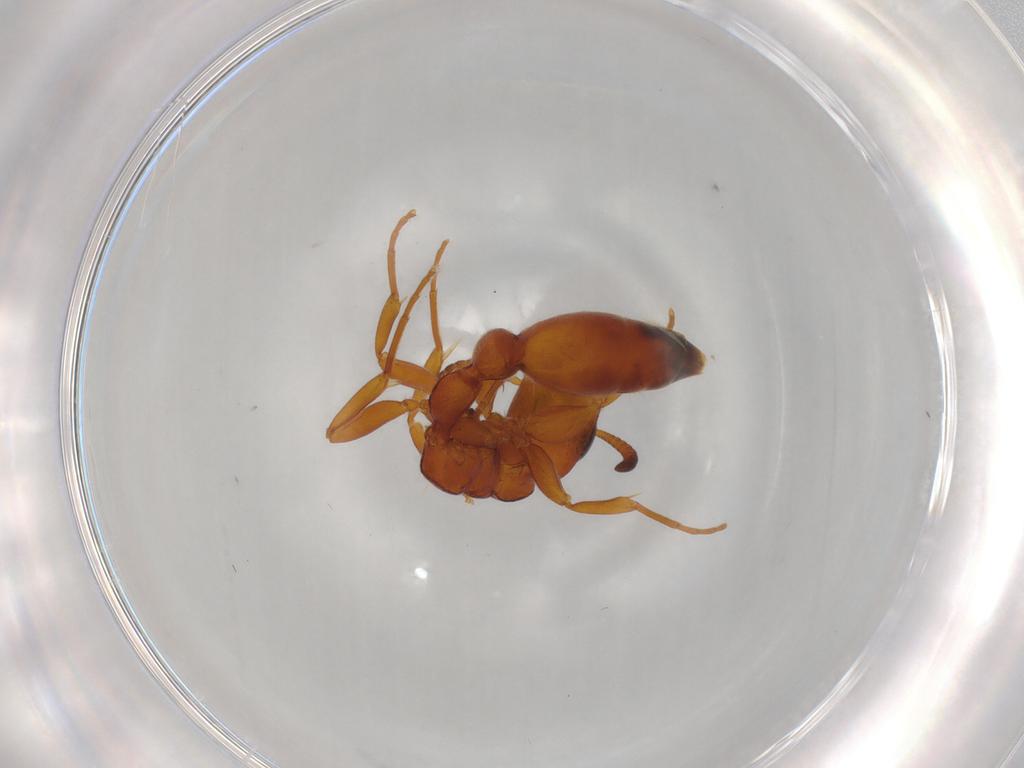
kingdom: Animalia
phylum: Arthropoda
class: Insecta
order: Hymenoptera
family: Formicidae
